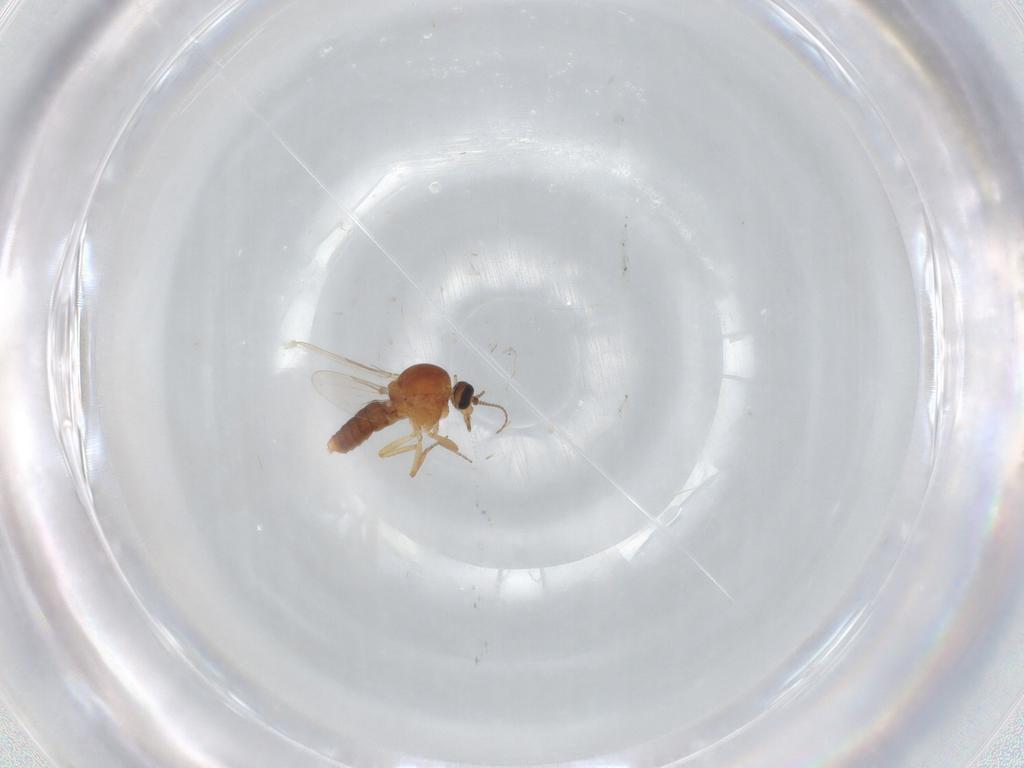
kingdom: Animalia
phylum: Arthropoda
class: Insecta
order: Diptera
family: Ceratopogonidae
